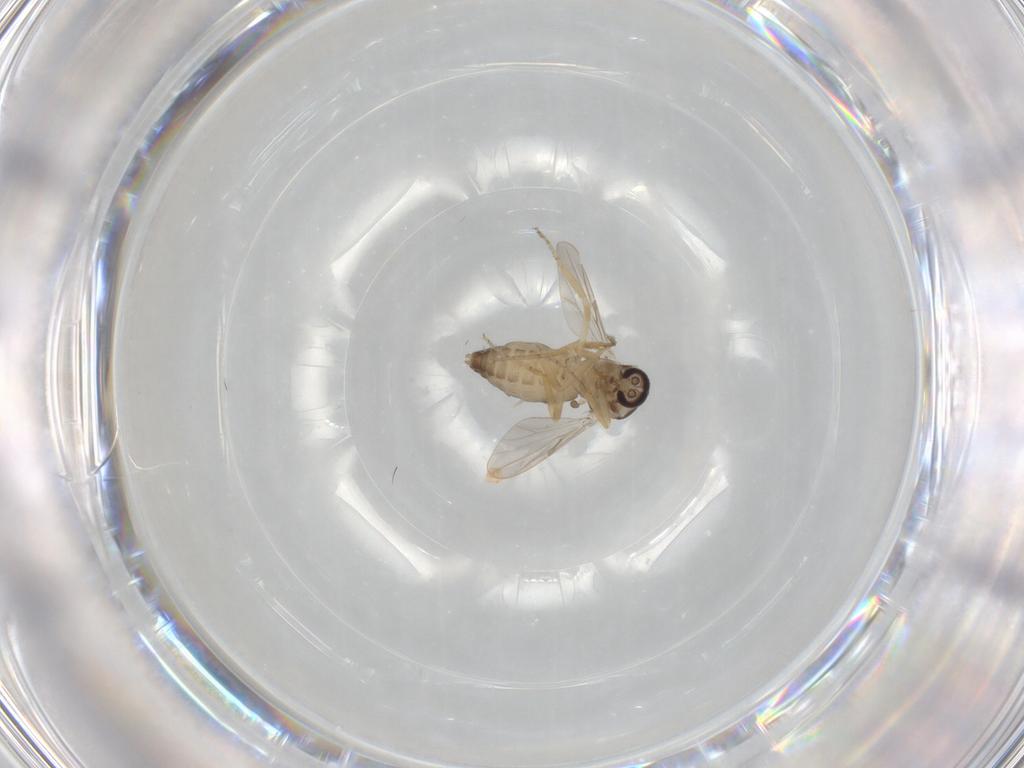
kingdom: Animalia
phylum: Arthropoda
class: Insecta
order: Diptera
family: Ceratopogonidae
